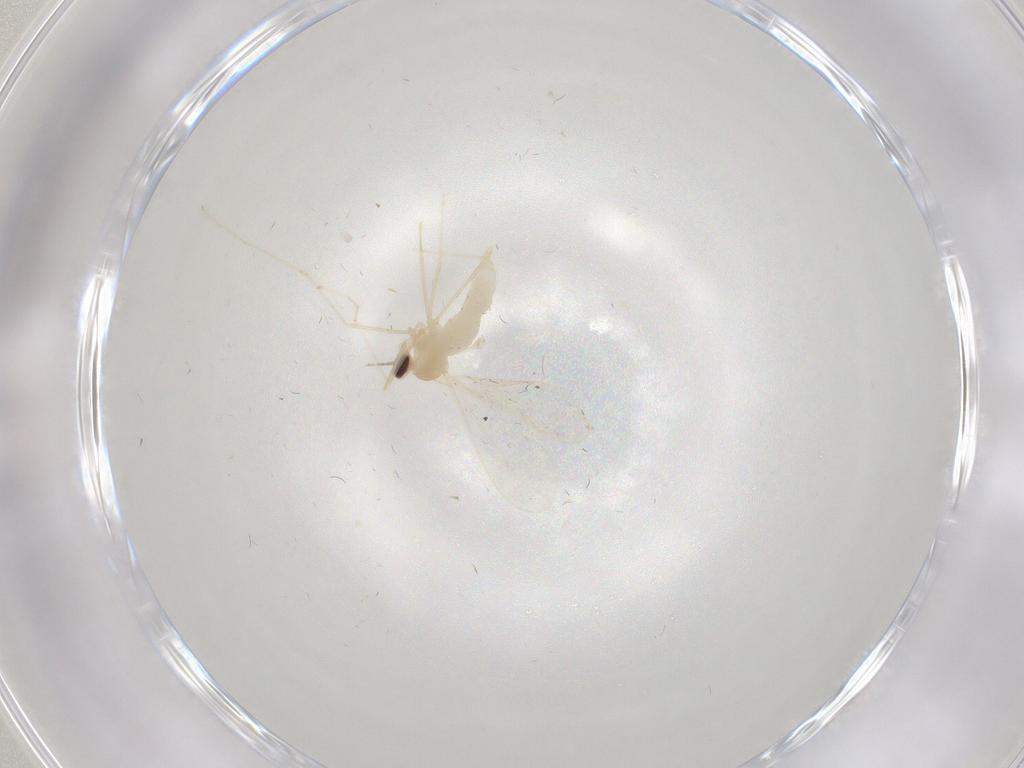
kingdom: Animalia
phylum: Arthropoda
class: Insecta
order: Diptera
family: Cecidomyiidae
